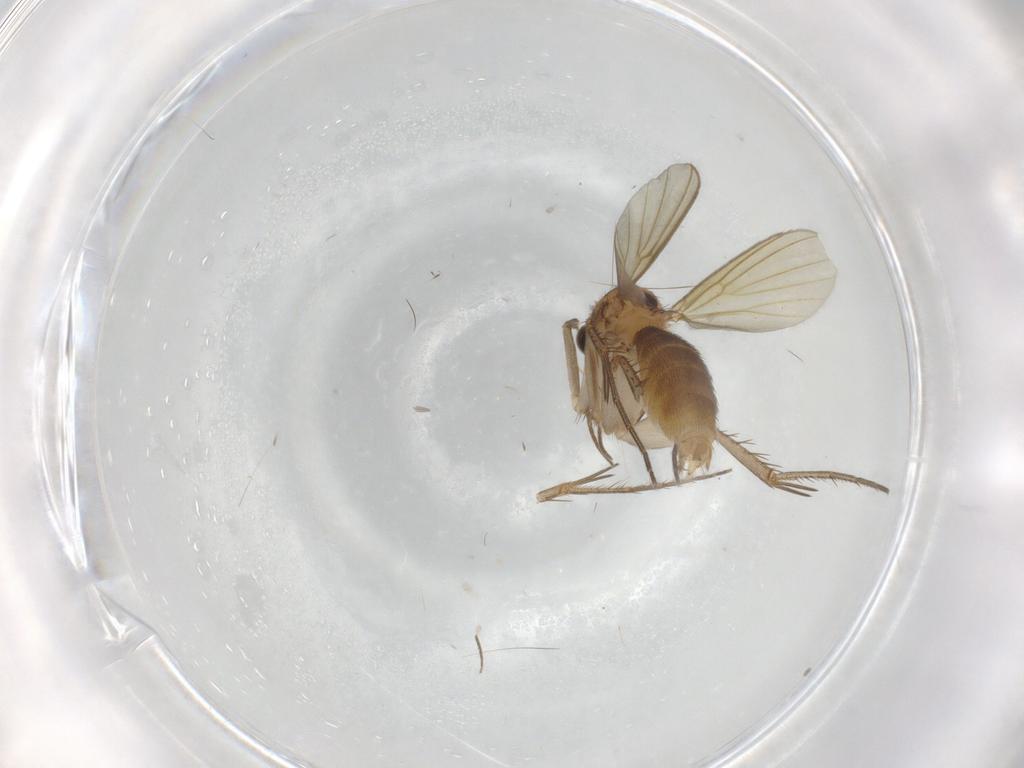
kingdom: Animalia
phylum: Arthropoda
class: Insecta
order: Diptera
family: Mycetophilidae
